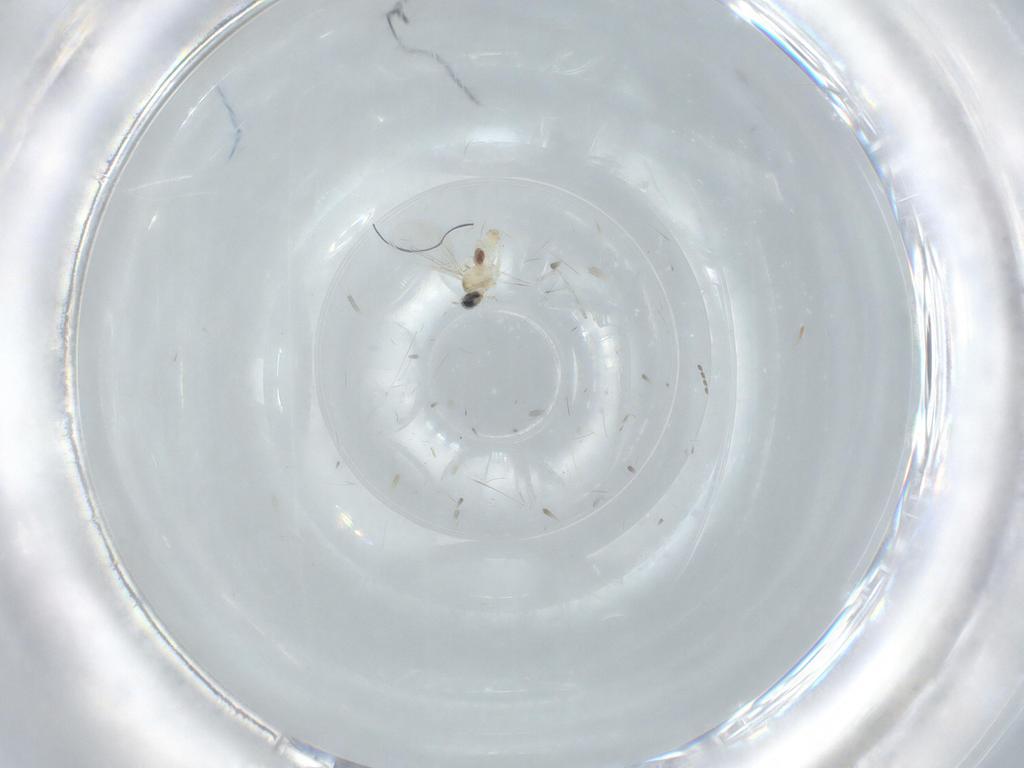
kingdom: Animalia
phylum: Arthropoda
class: Insecta
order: Diptera
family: Cecidomyiidae
